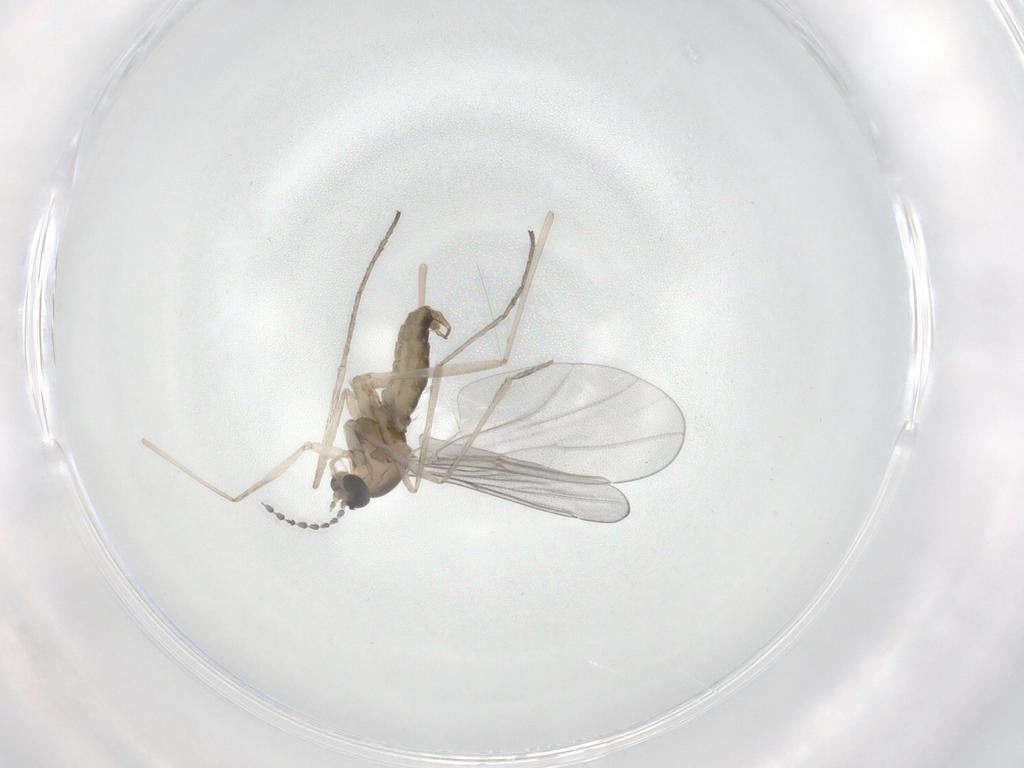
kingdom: Animalia
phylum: Arthropoda
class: Insecta
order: Diptera
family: Cecidomyiidae
